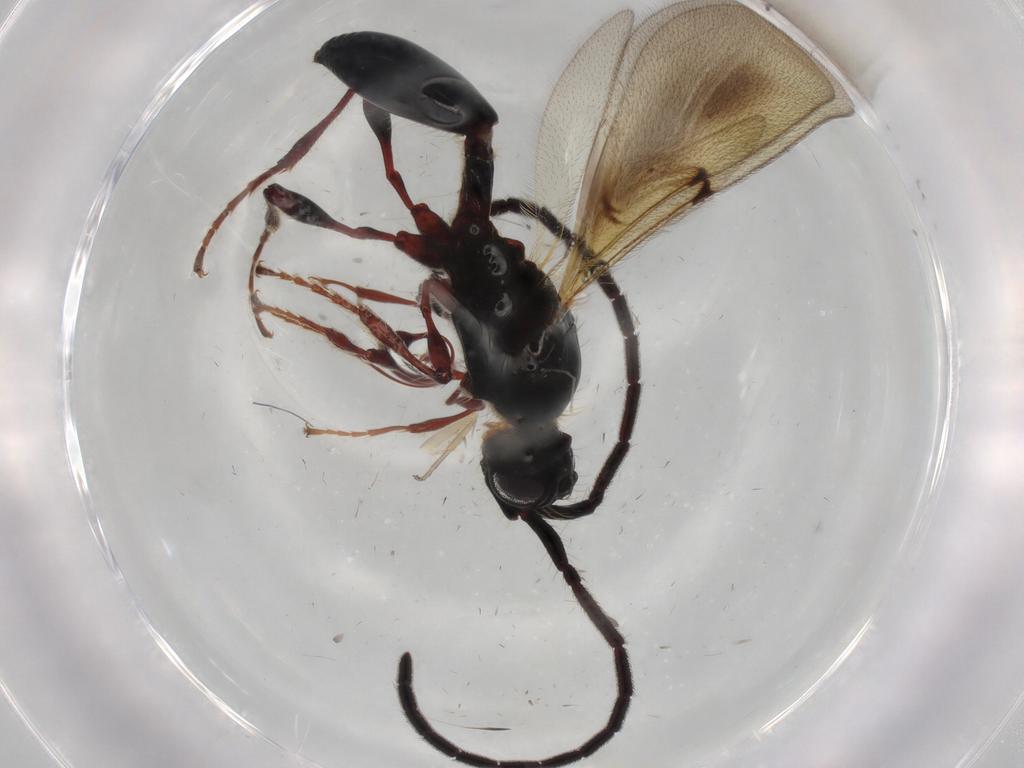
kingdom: Animalia
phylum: Arthropoda
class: Insecta
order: Hymenoptera
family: Diapriidae
